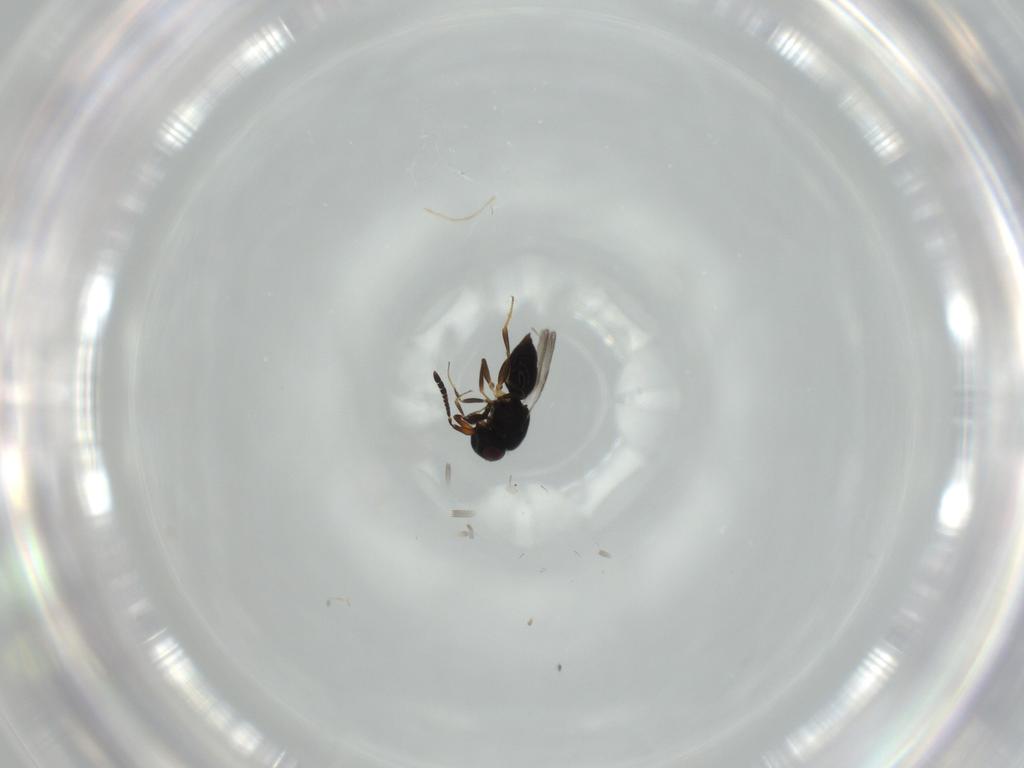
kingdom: Animalia
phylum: Arthropoda
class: Insecta
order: Hymenoptera
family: Ceraphronidae
